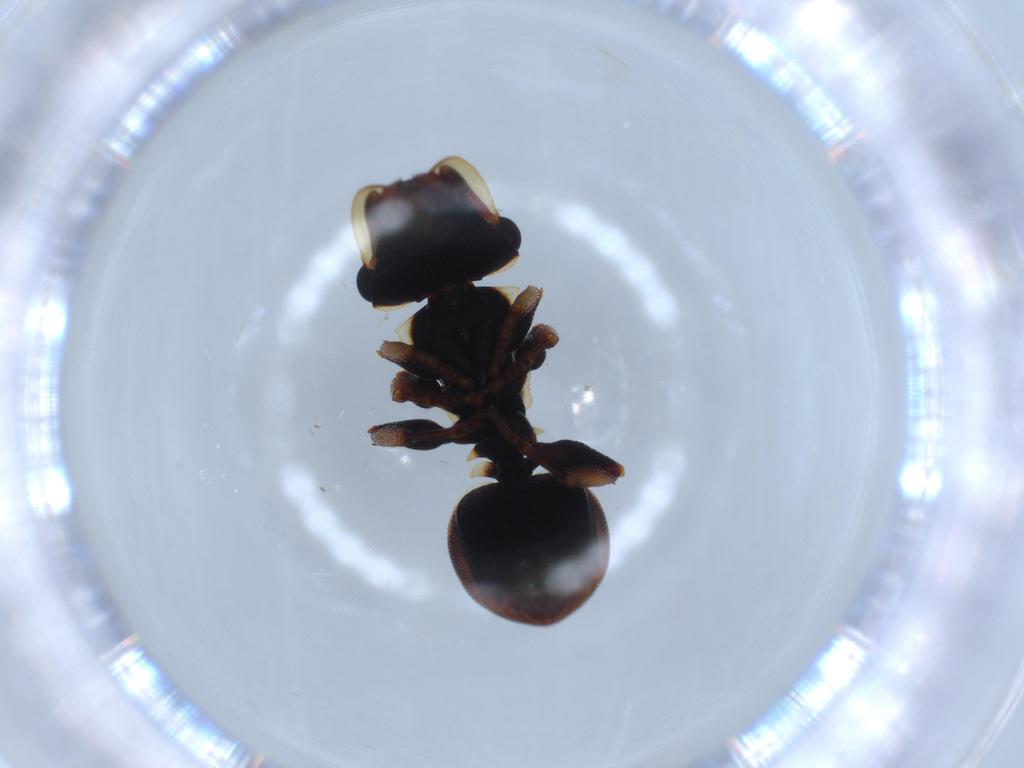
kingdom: Animalia
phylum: Arthropoda
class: Insecta
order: Hymenoptera
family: Formicidae
